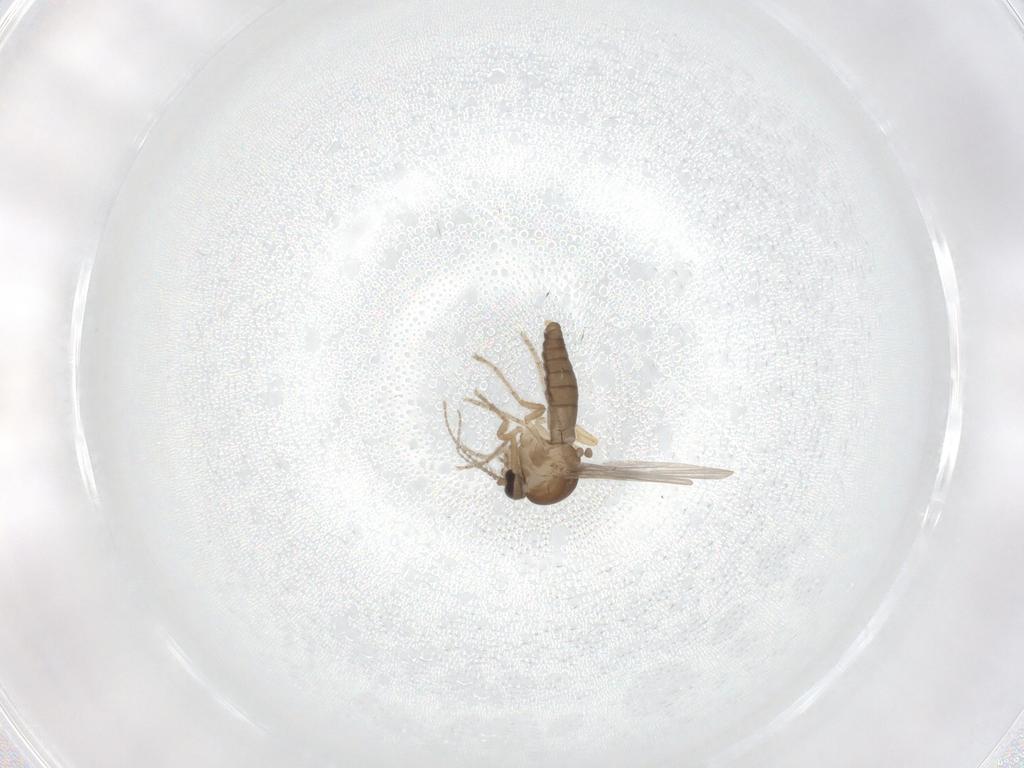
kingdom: Animalia
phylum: Arthropoda
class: Insecta
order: Diptera
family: Ceratopogonidae
